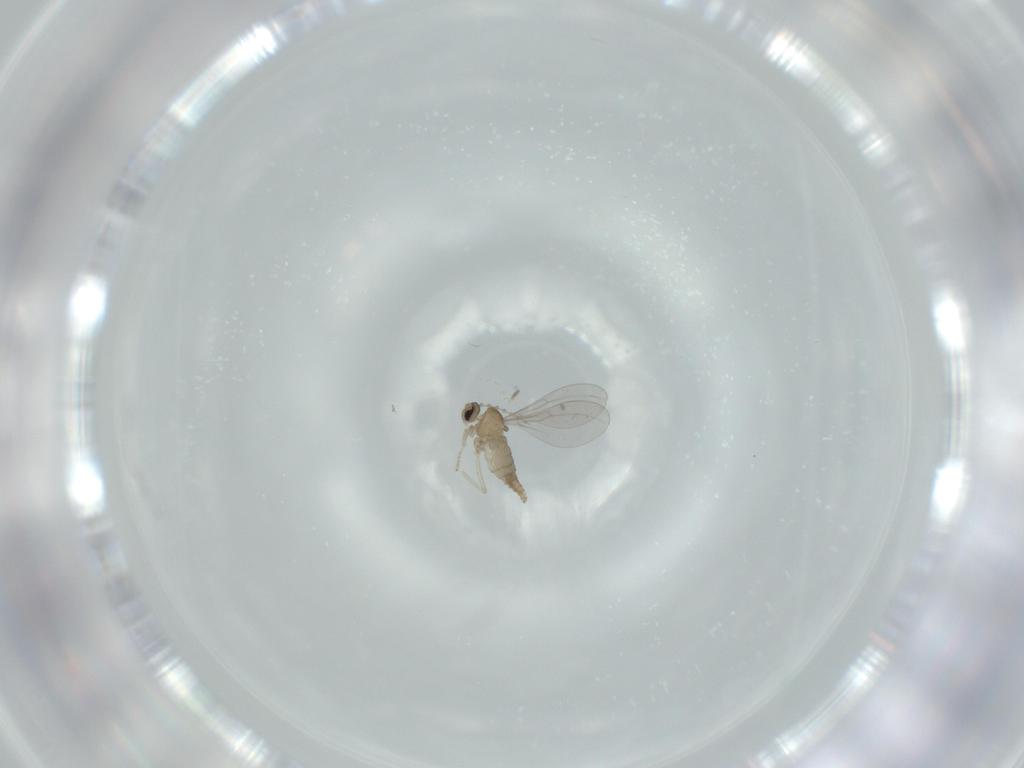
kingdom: Animalia
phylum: Arthropoda
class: Insecta
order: Diptera
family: Cecidomyiidae
